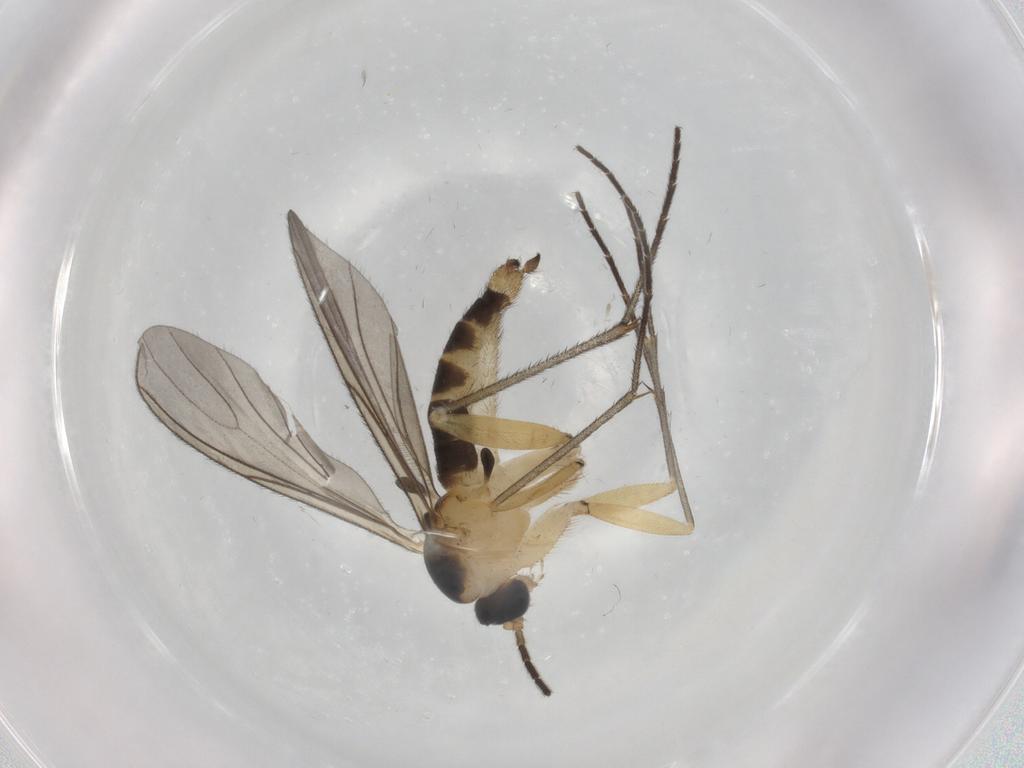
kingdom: Animalia
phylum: Arthropoda
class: Insecta
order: Diptera
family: Sciaridae
